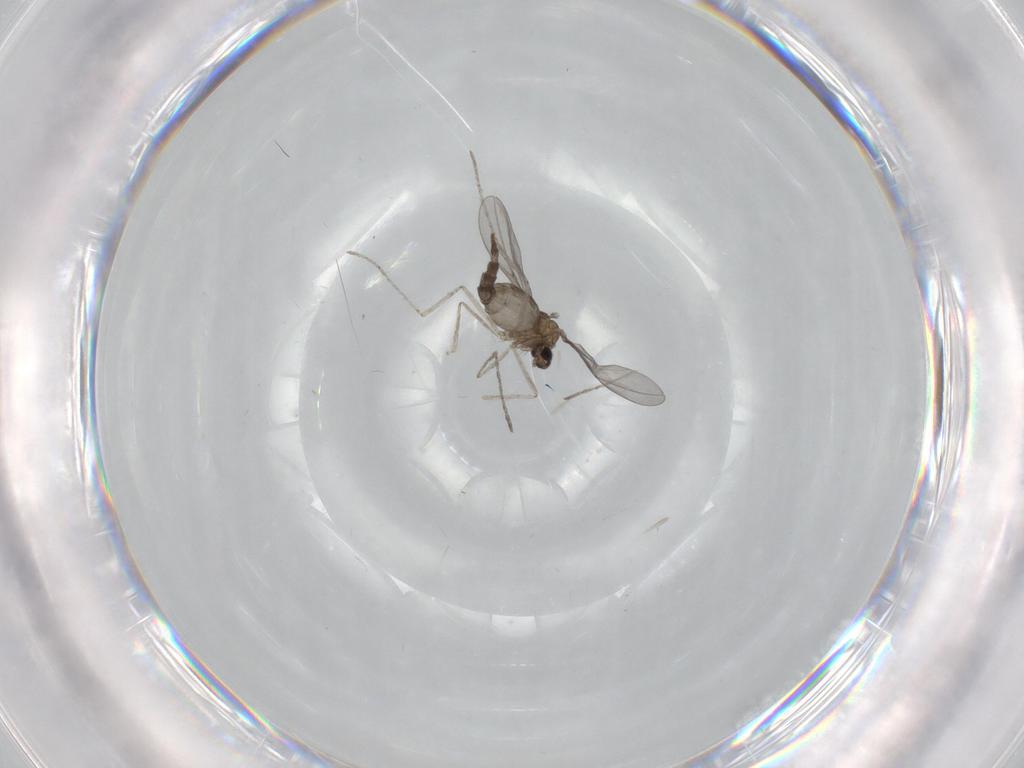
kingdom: Animalia
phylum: Arthropoda
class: Insecta
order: Diptera
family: Cecidomyiidae
